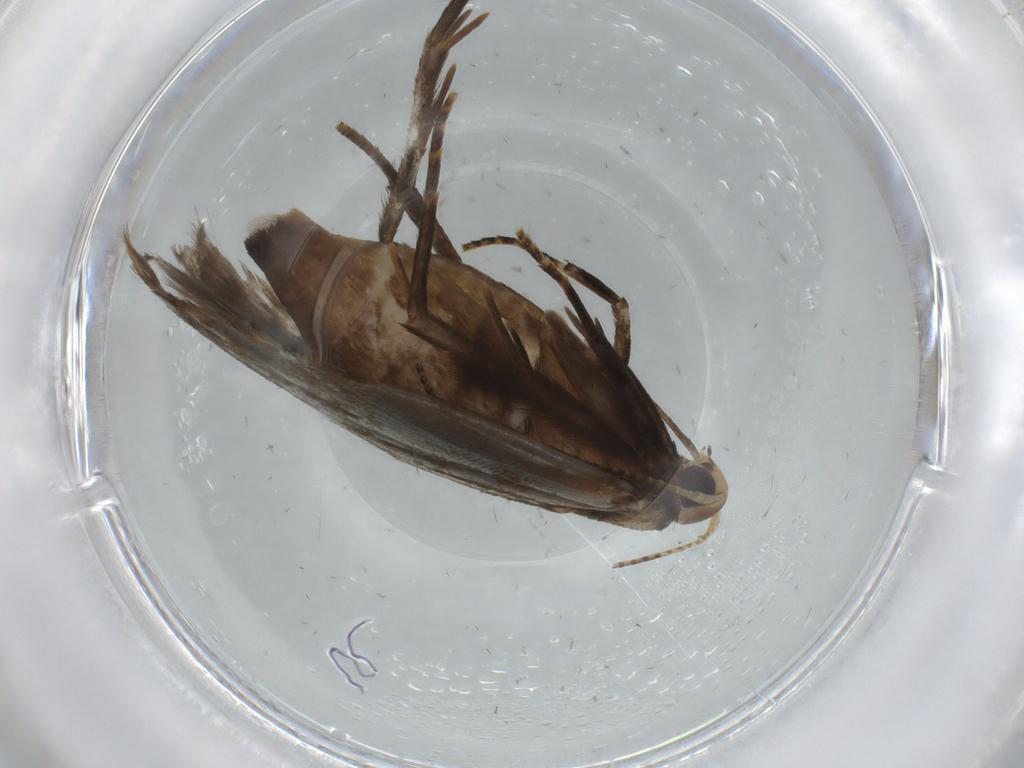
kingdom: Animalia
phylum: Arthropoda
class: Insecta
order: Lepidoptera
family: Gelechiidae
